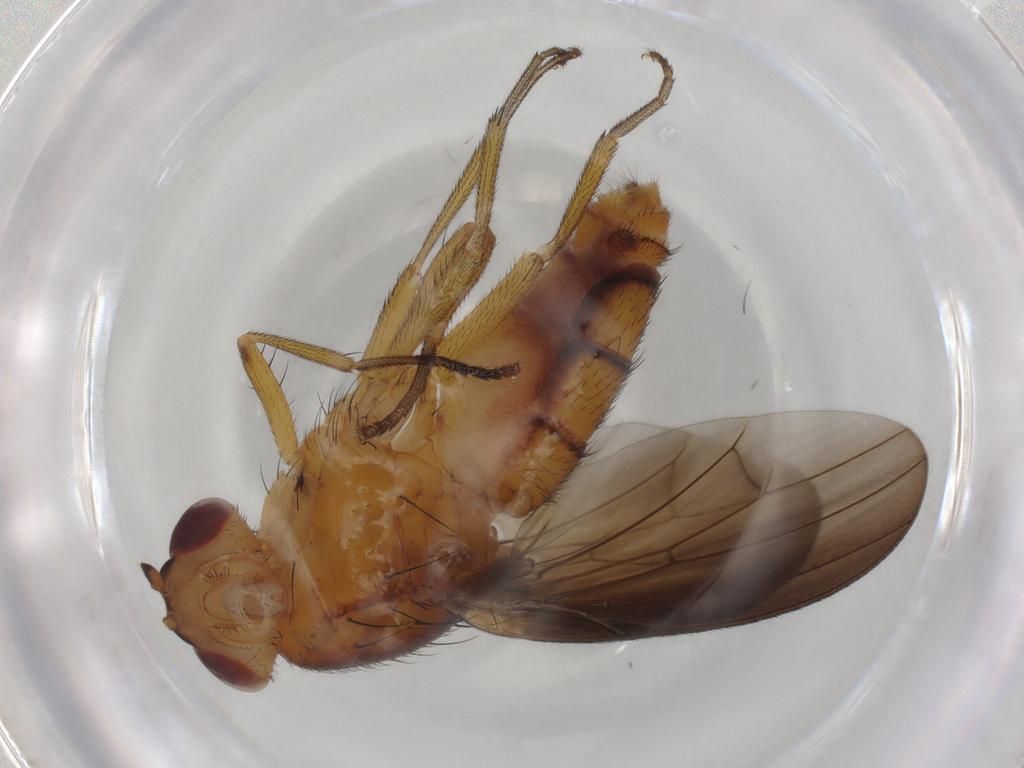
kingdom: Animalia
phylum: Arthropoda
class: Insecta
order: Diptera
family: Lauxaniidae
